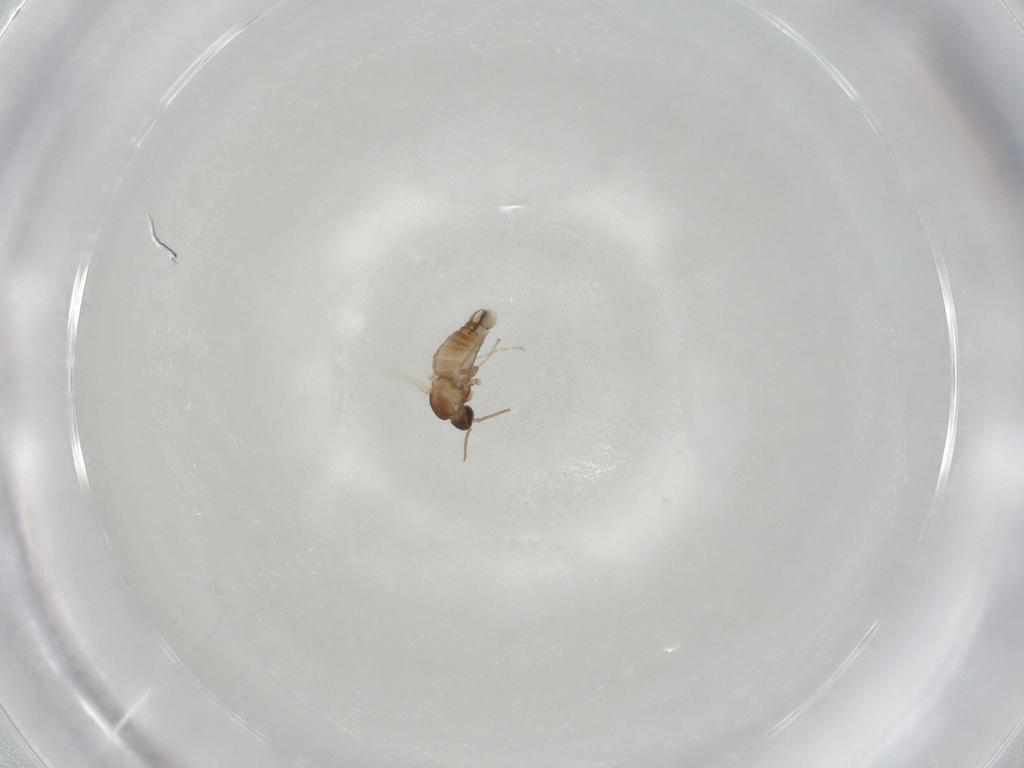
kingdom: Animalia
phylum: Arthropoda
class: Insecta
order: Diptera
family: Cecidomyiidae
